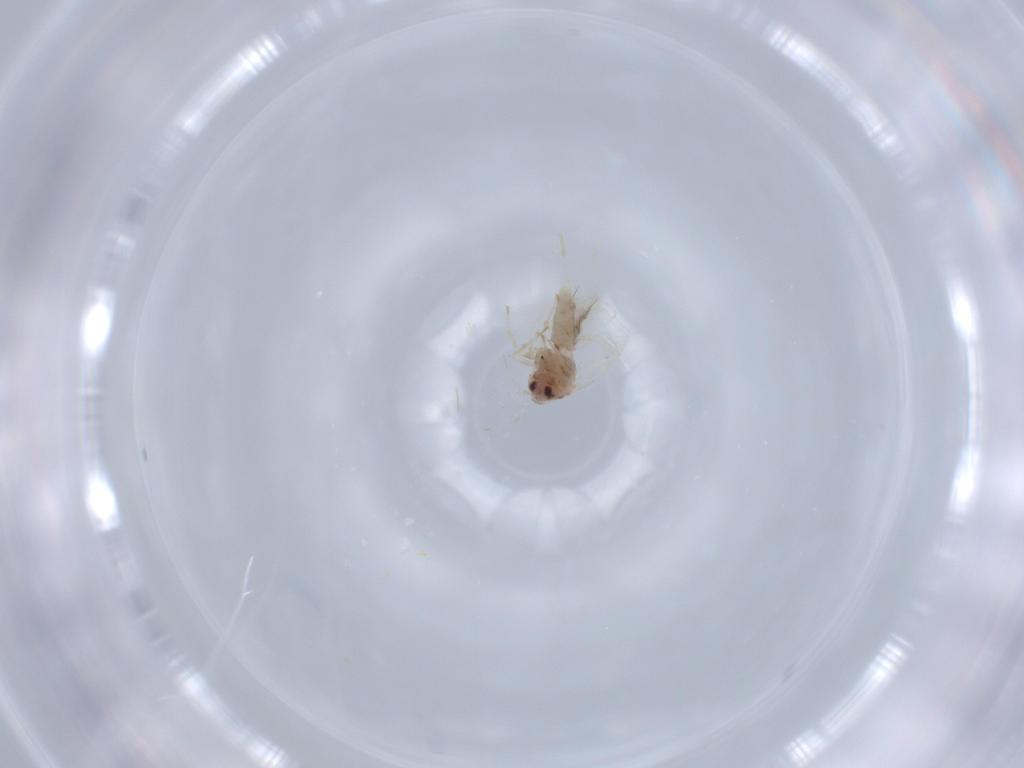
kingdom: Animalia
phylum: Arthropoda
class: Insecta
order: Hemiptera
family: Aleyrodidae
